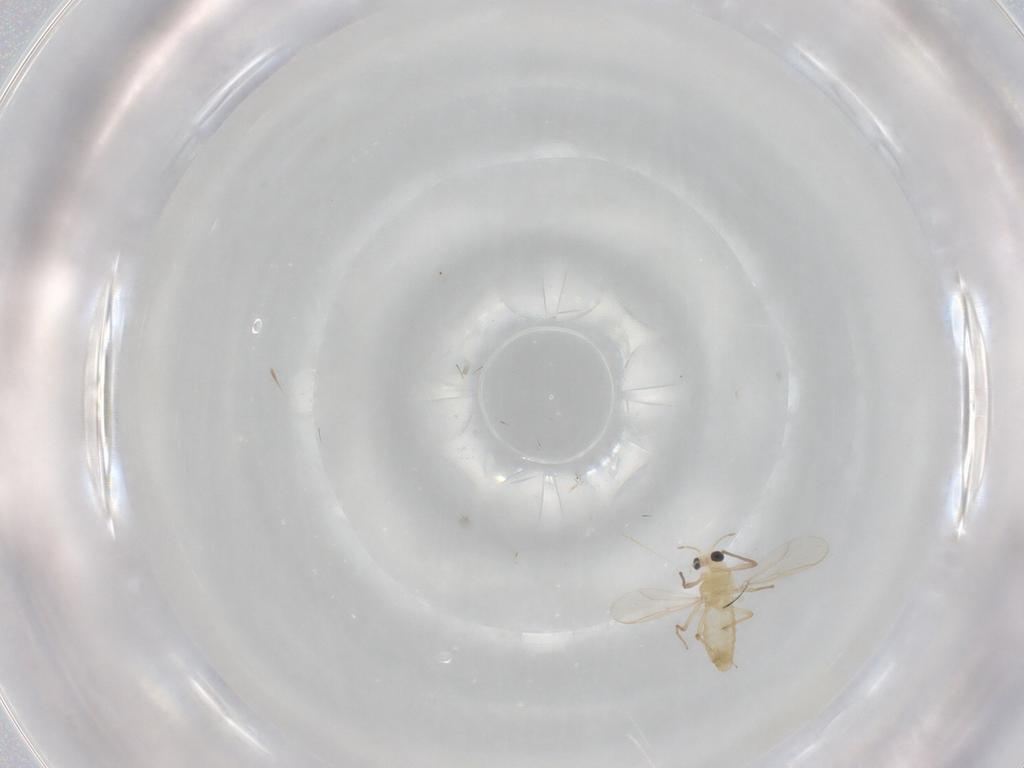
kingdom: Animalia
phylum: Arthropoda
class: Insecta
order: Diptera
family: Chironomidae
